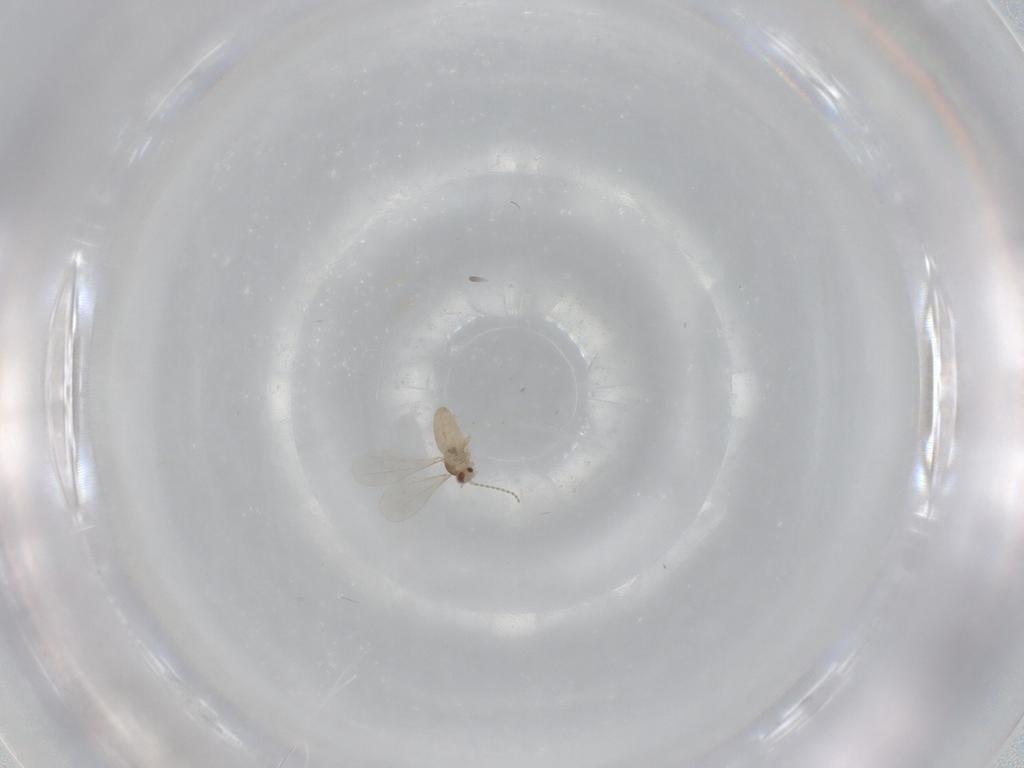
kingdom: Animalia
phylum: Arthropoda
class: Insecta
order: Diptera
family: Cecidomyiidae
